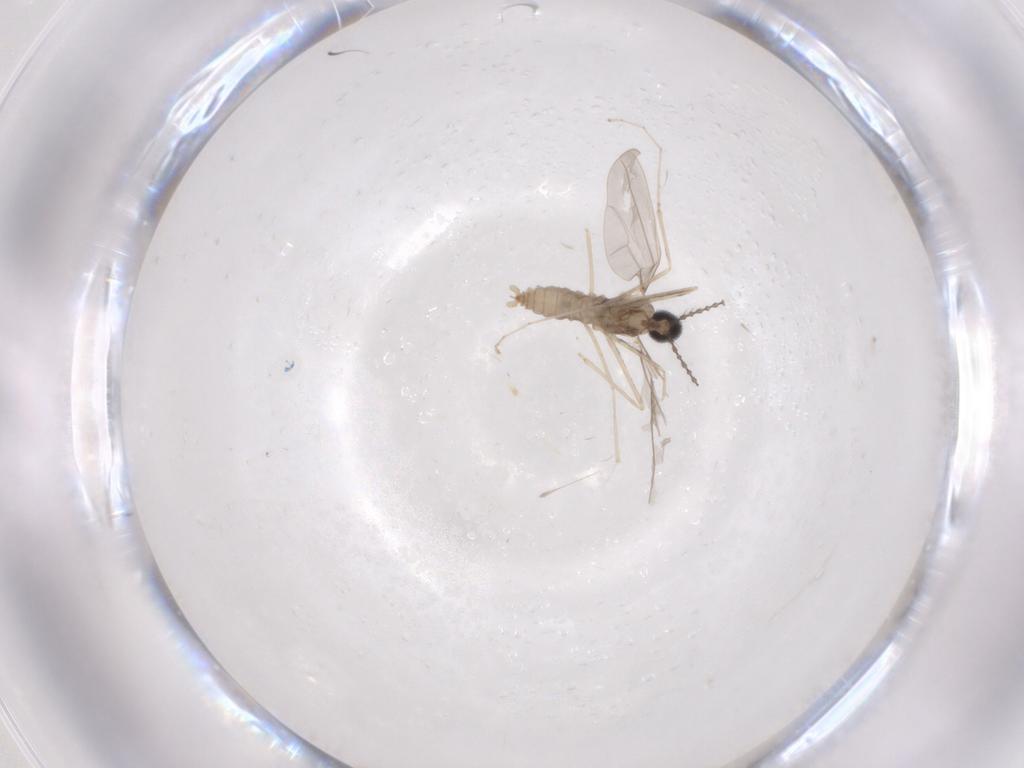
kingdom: Animalia
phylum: Arthropoda
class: Insecta
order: Diptera
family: Cecidomyiidae
